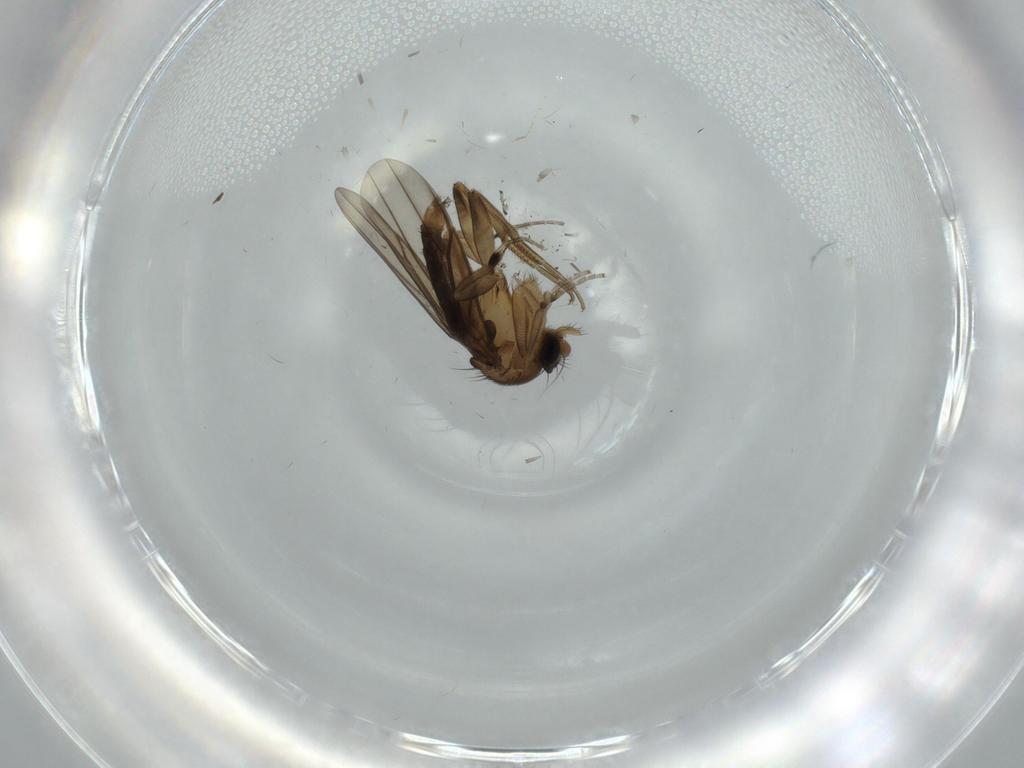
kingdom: Animalia
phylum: Arthropoda
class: Insecta
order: Diptera
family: Phoridae
